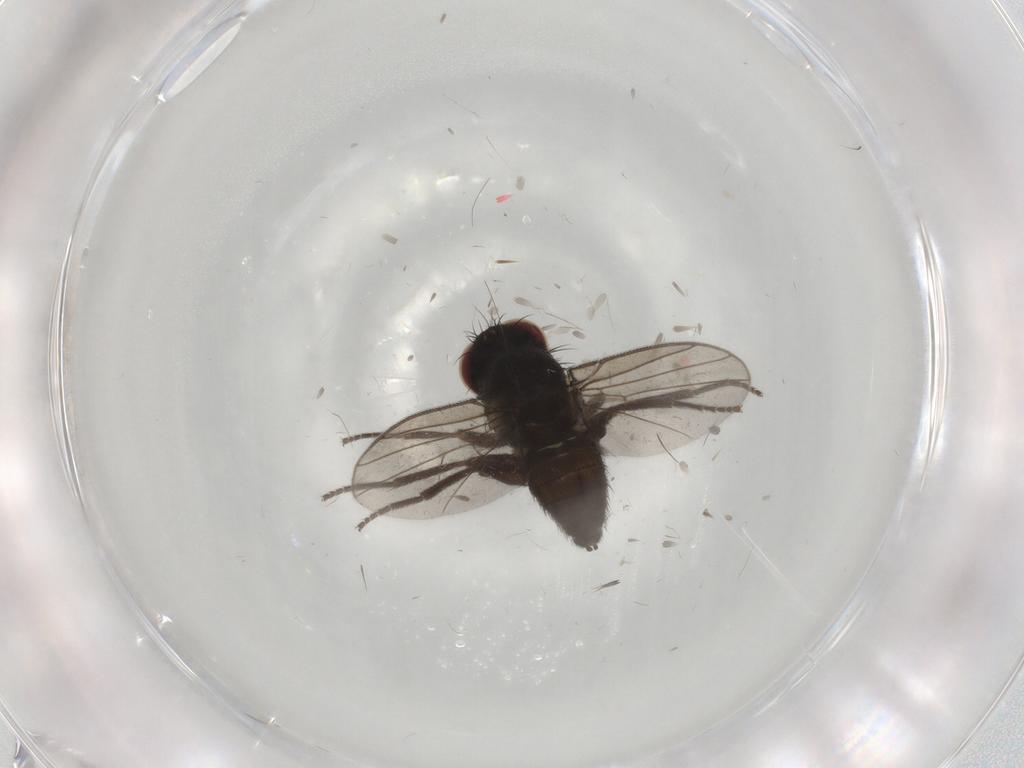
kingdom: Animalia
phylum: Arthropoda
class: Insecta
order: Diptera
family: Agromyzidae
